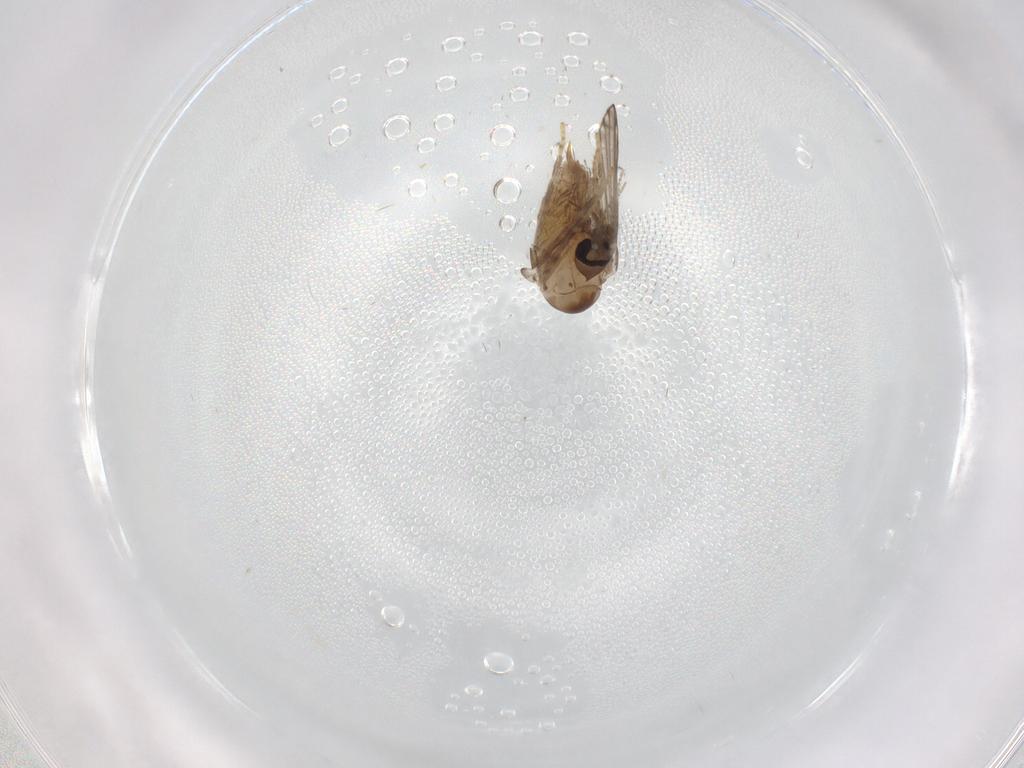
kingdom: Animalia
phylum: Arthropoda
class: Insecta
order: Diptera
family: Psychodidae
